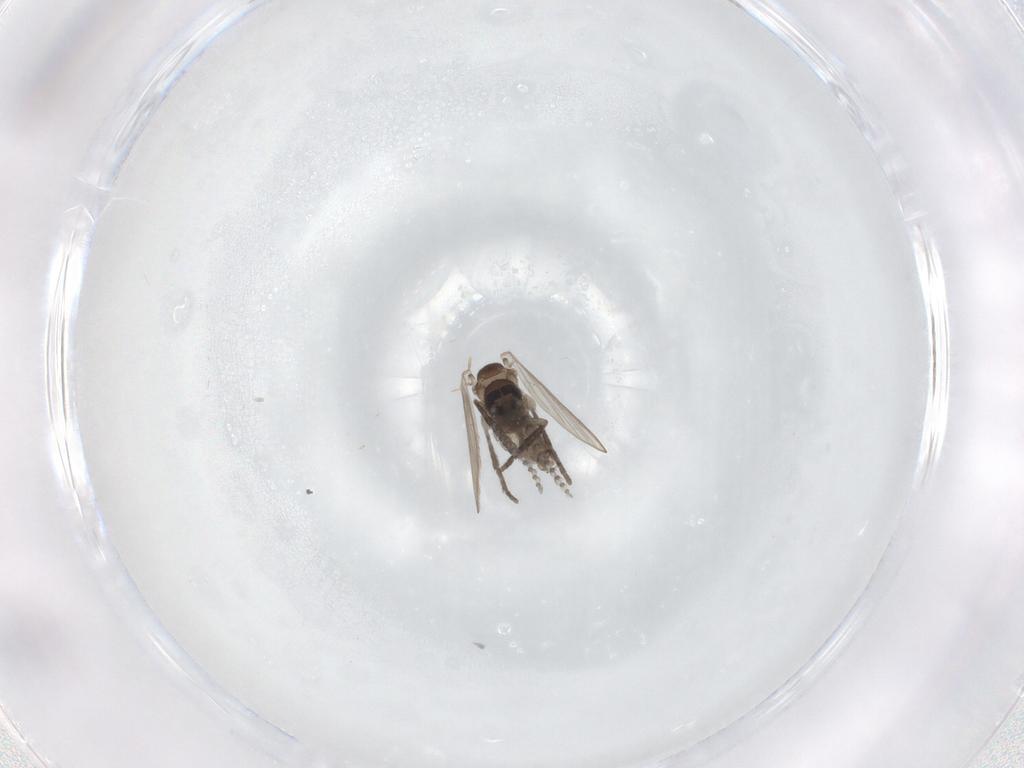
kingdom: Animalia
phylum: Arthropoda
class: Insecta
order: Diptera
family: Psychodidae
